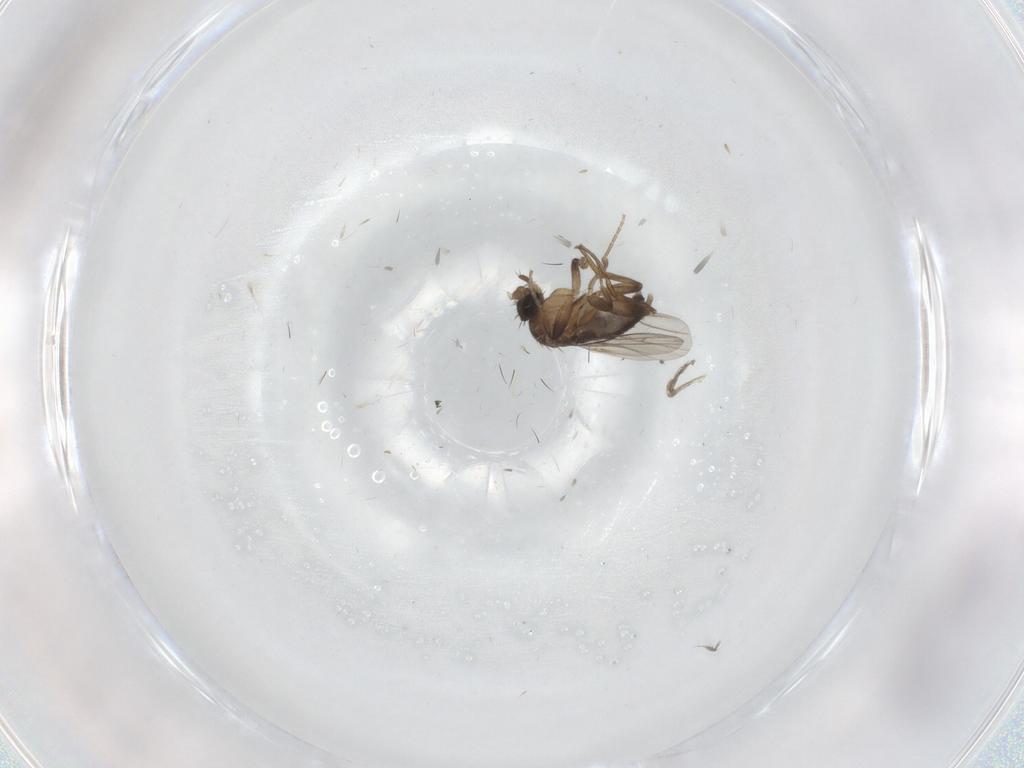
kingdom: Animalia
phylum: Arthropoda
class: Insecta
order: Diptera
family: Phoridae
